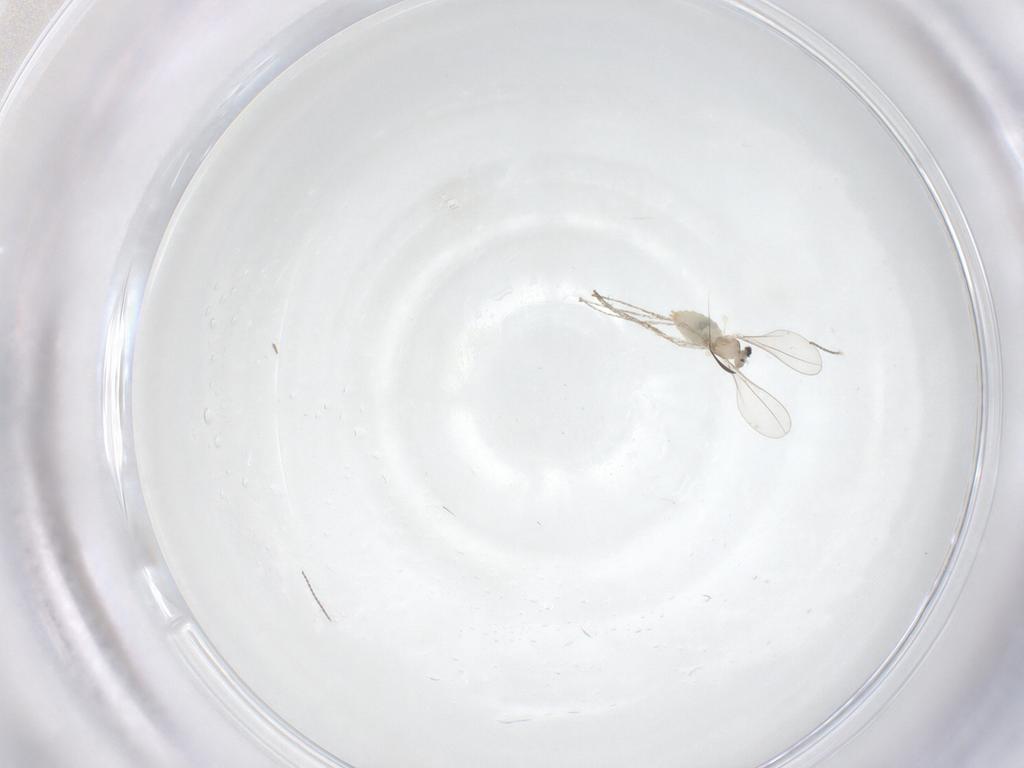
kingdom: Animalia
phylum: Arthropoda
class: Insecta
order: Diptera
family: Cecidomyiidae
